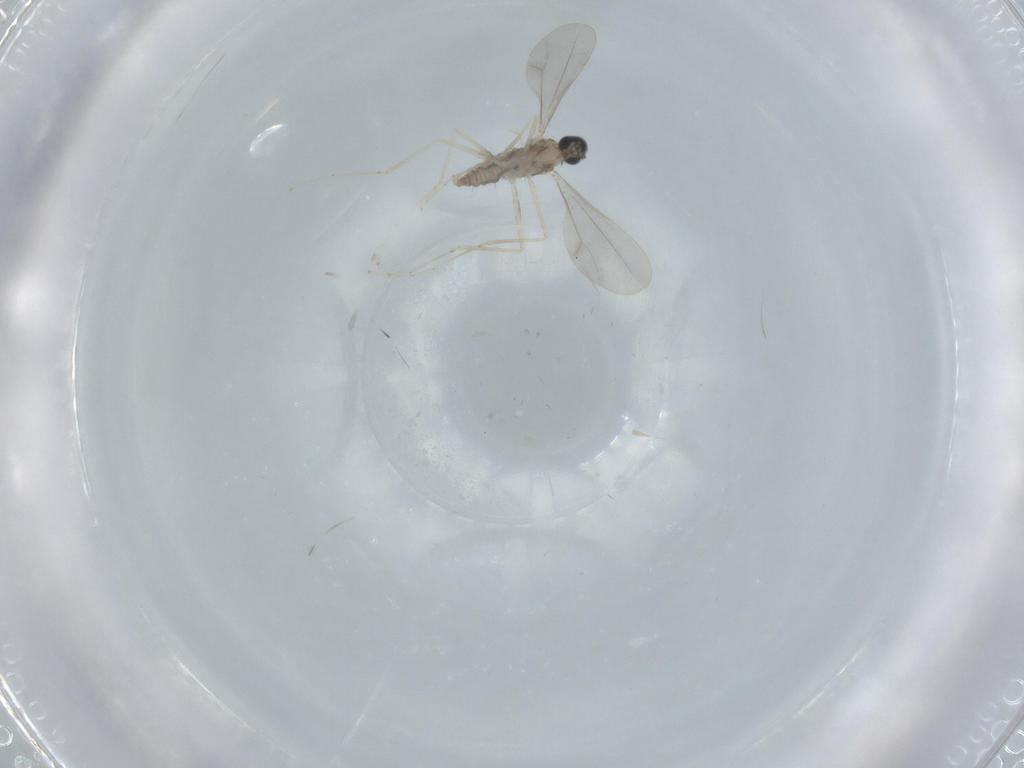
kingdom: Animalia
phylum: Arthropoda
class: Insecta
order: Diptera
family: Cecidomyiidae
